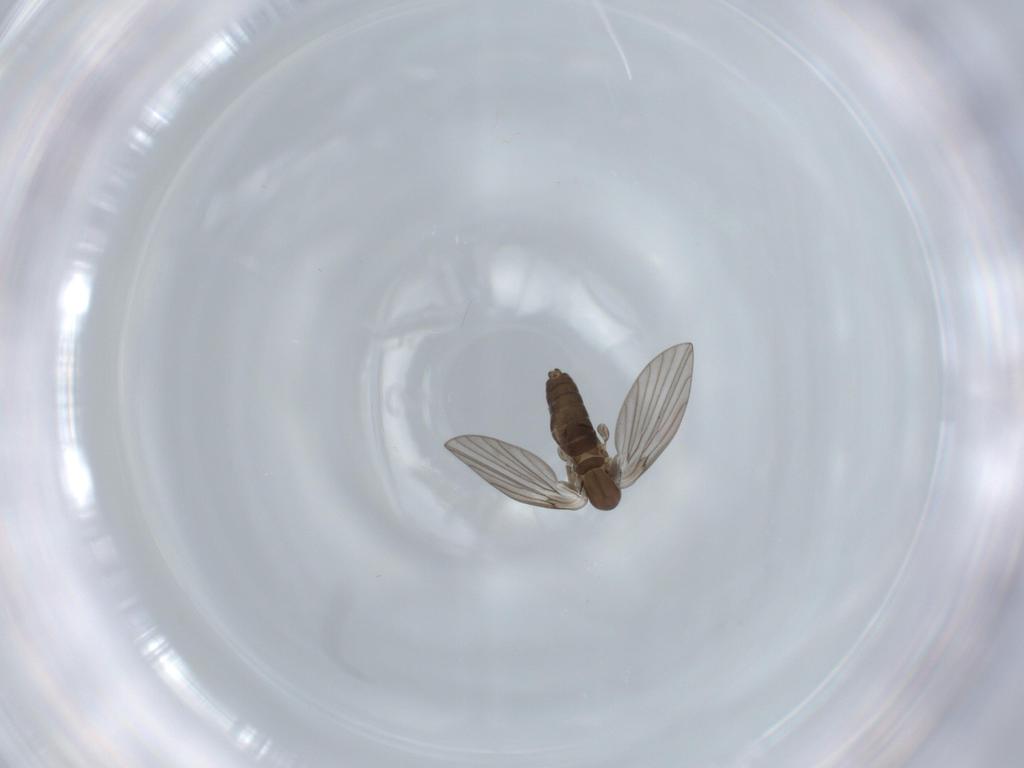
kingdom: Animalia
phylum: Arthropoda
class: Insecta
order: Diptera
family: Psychodidae
